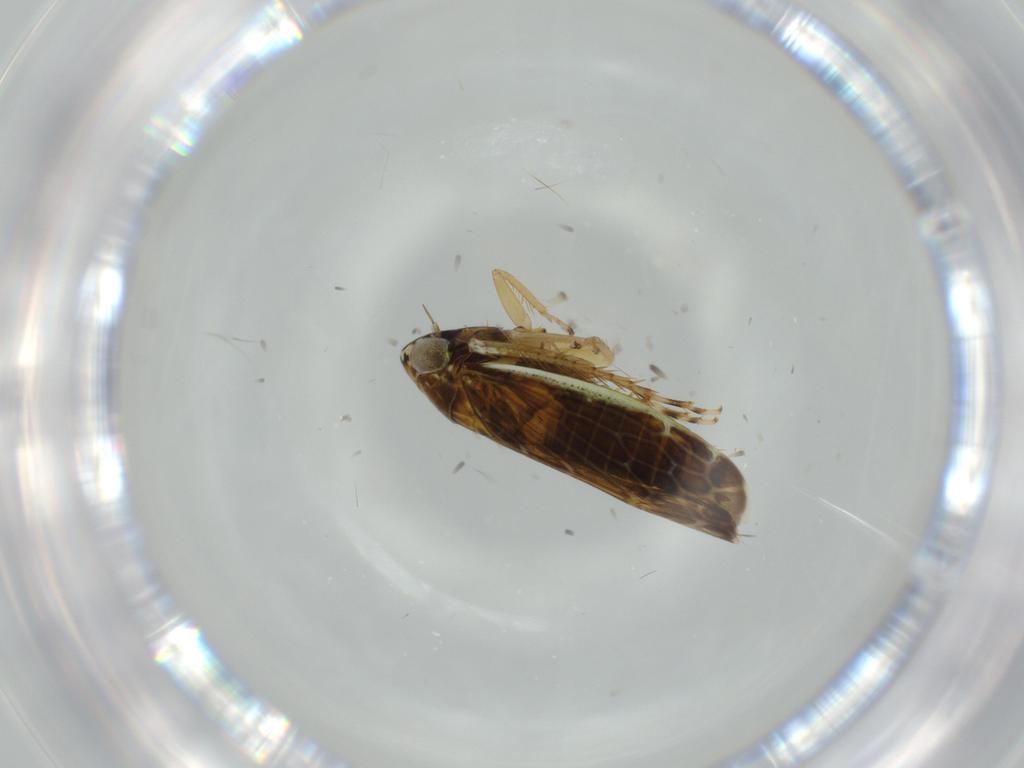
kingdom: Animalia
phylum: Arthropoda
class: Insecta
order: Hemiptera
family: Cicadellidae
